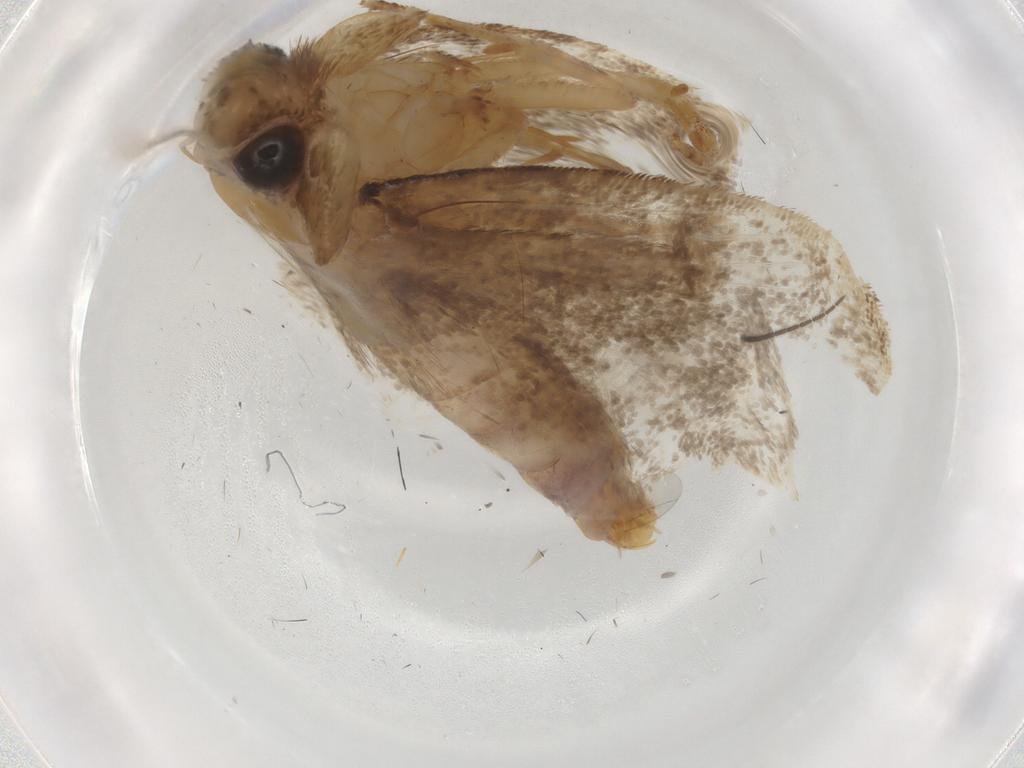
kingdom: Animalia
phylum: Arthropoda
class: Insecta
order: Lepidoptera
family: Tineidae
